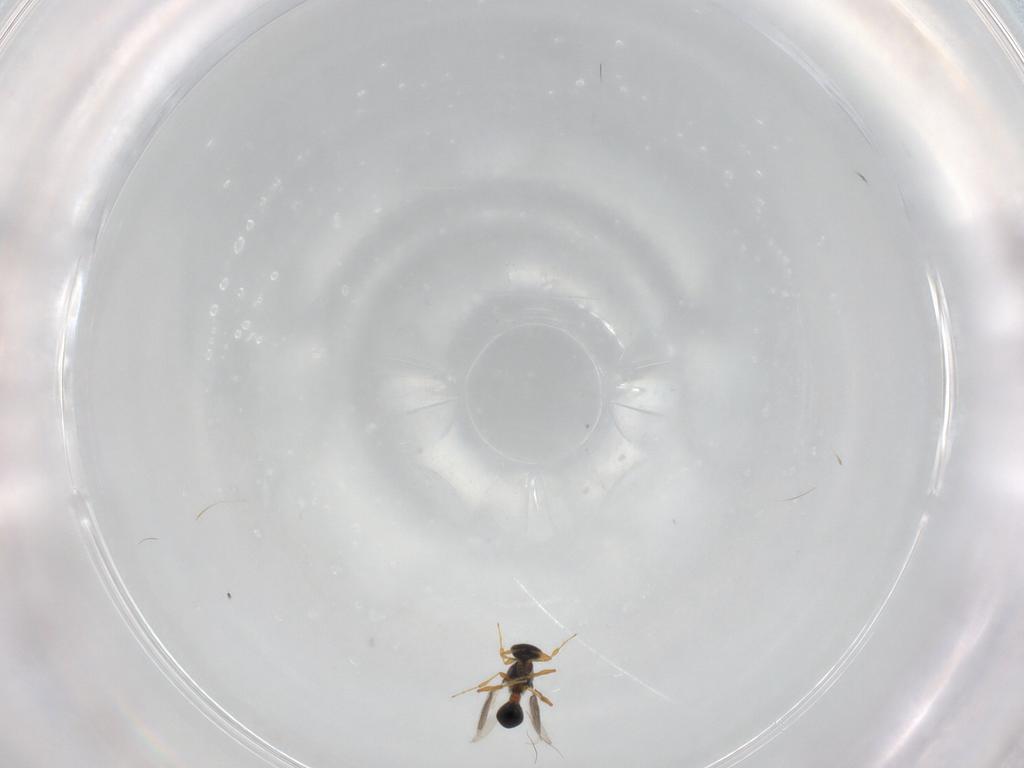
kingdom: Animalia
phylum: Arthropoda
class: Insecta
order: Hymenoptera
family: Platygastridae
